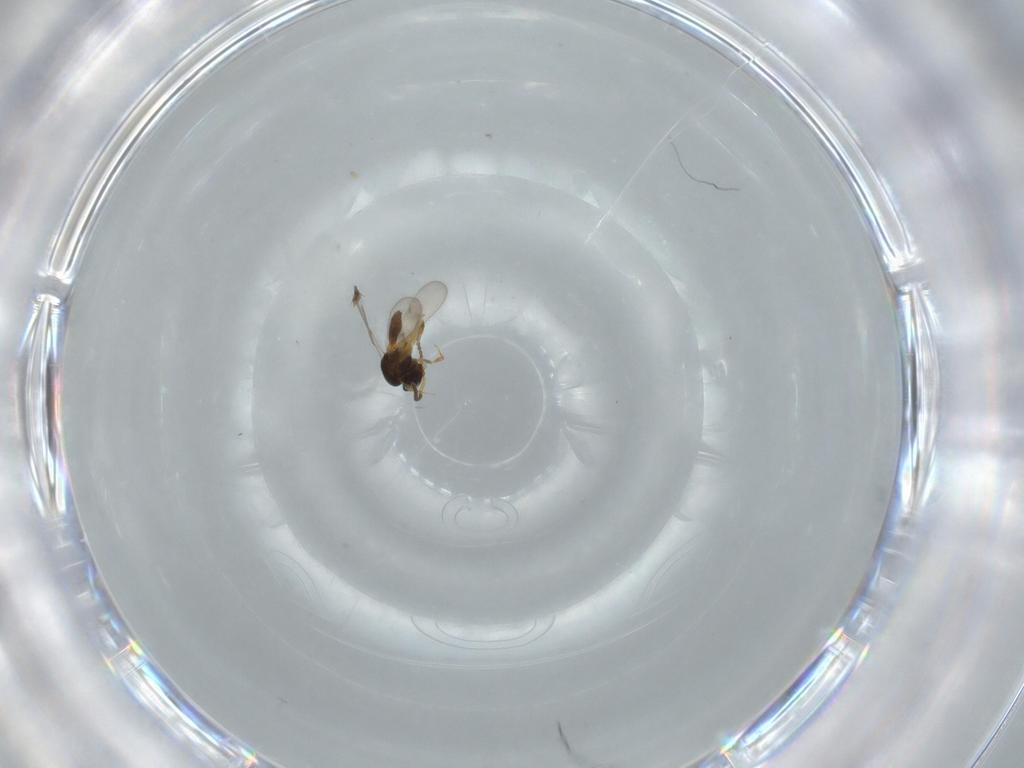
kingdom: Animalia
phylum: Arthropoda
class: Insecta
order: Hymenoptera
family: Scelionidae
